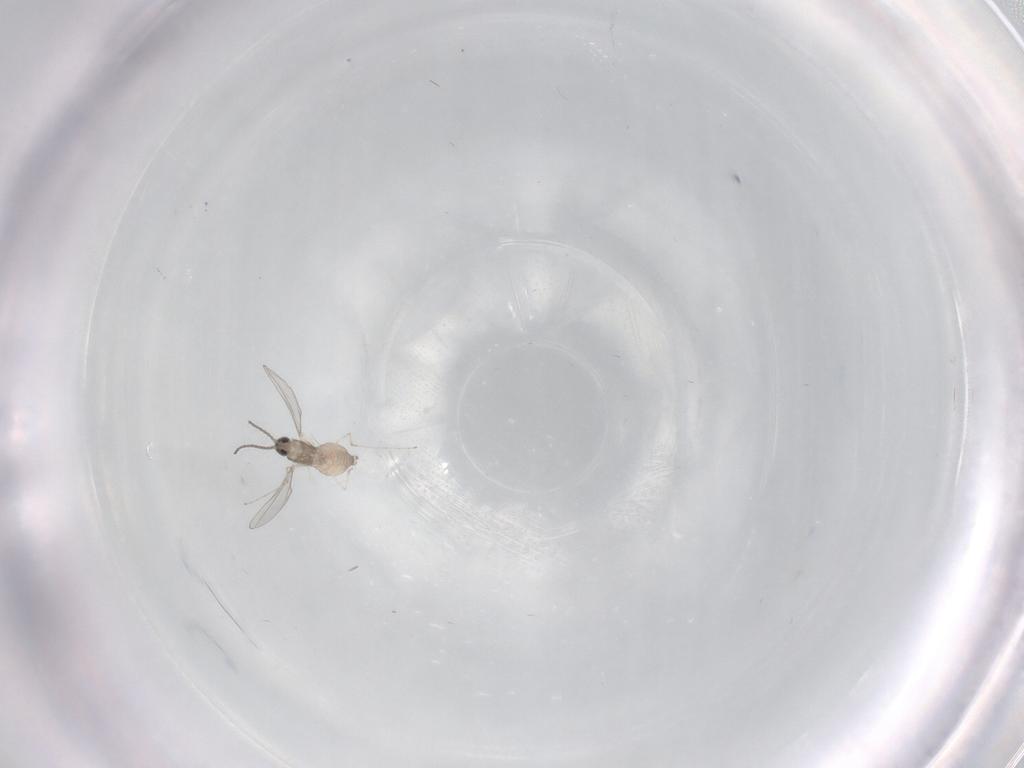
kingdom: Animalia
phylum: Arthropoda
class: Insecta
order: Diptera
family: Phoridae
